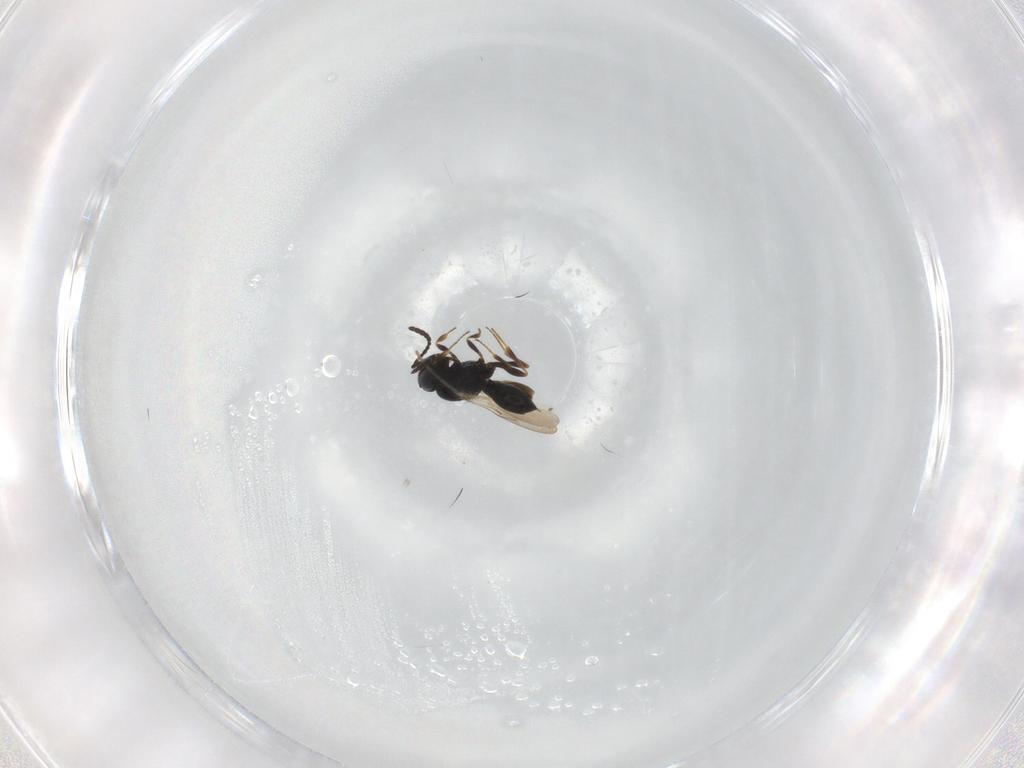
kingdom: Animalia
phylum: Arthropoda
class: Insecta
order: Hymenoptera
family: Scelionidae
